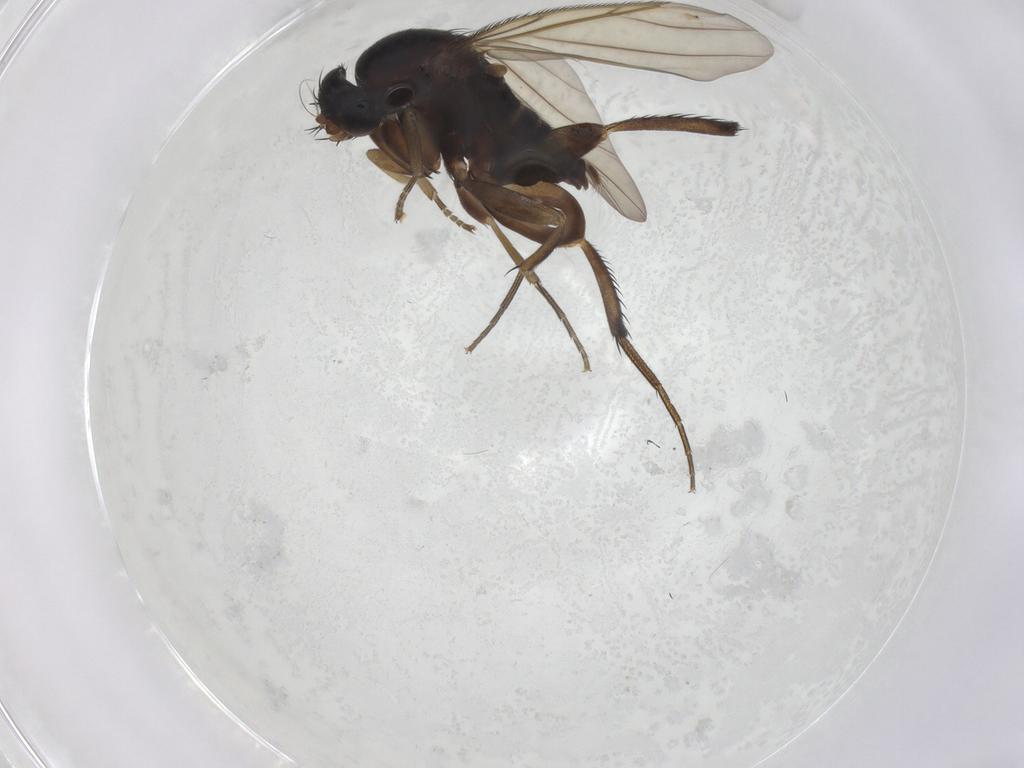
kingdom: Animalia
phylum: Arthropoda
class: Insecta
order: Diptera
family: Phoridae
